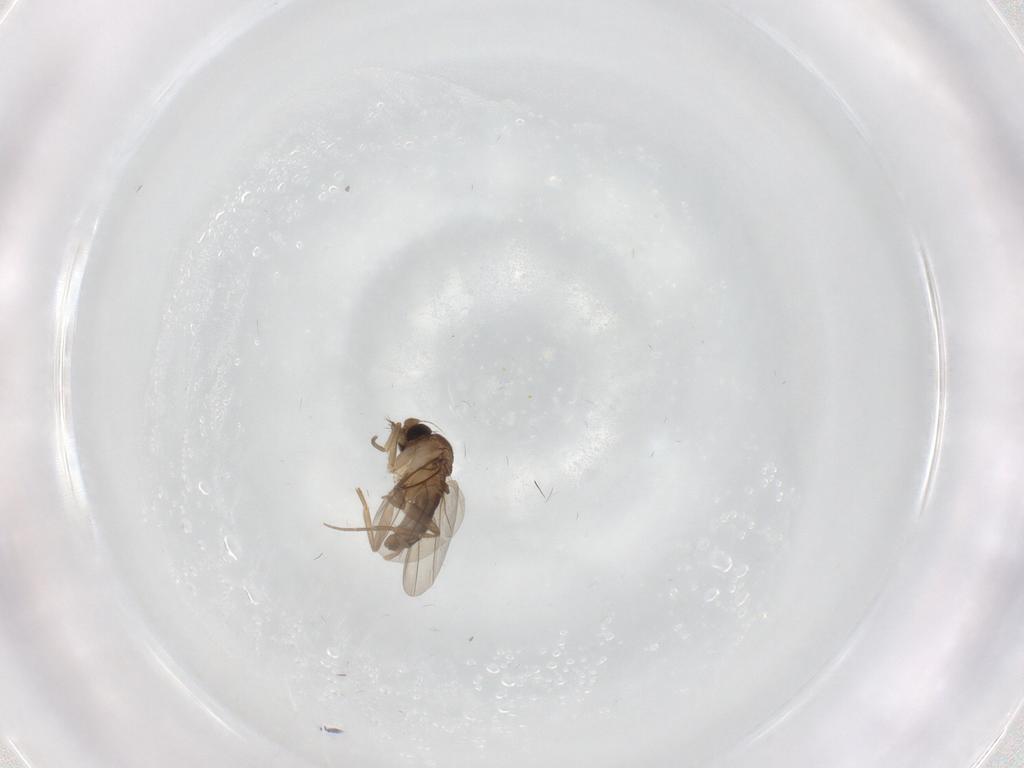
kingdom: Animalia
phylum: Arthropoda
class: Insecta
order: Diptera
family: Phoridae
